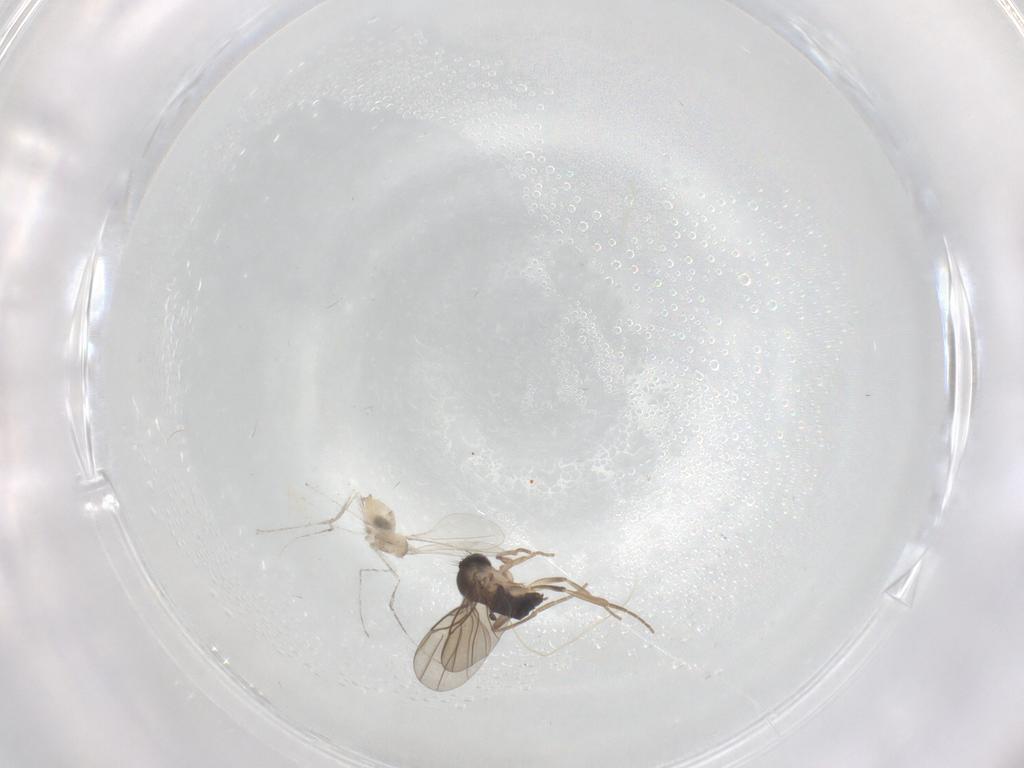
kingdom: Animalia
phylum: Arthropoda
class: Insecta
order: Diptera
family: Cecidomyiidae
